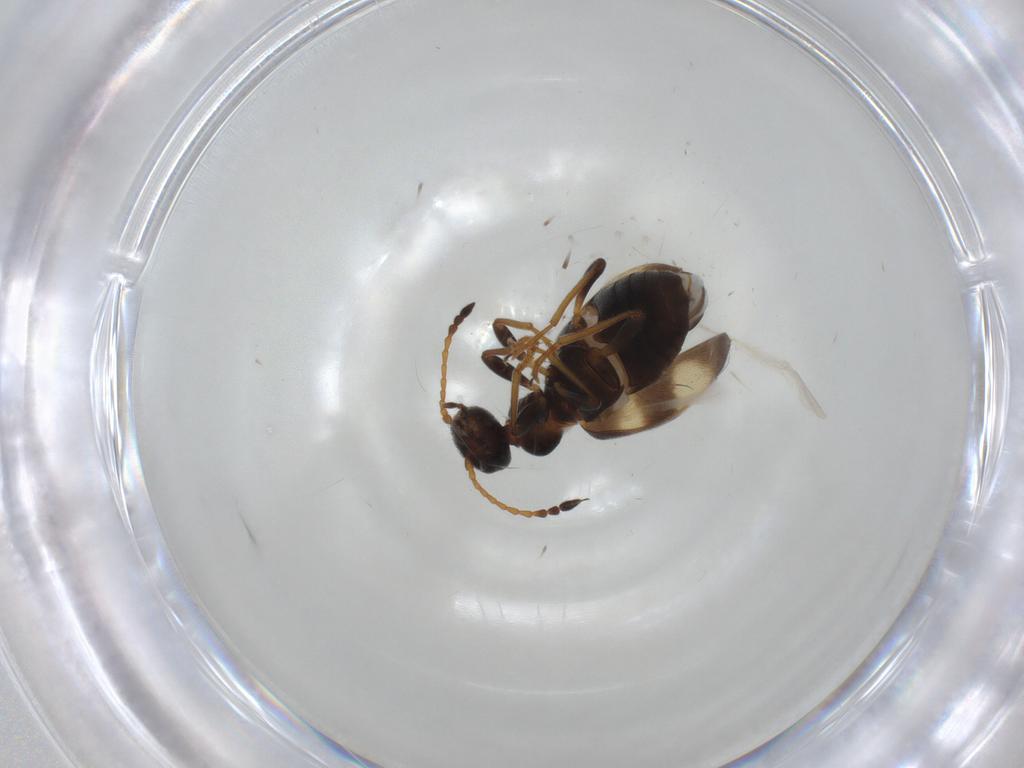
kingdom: Animalia
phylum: Arthropoda
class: Insecta
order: Coleoptera
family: Anthicidae
